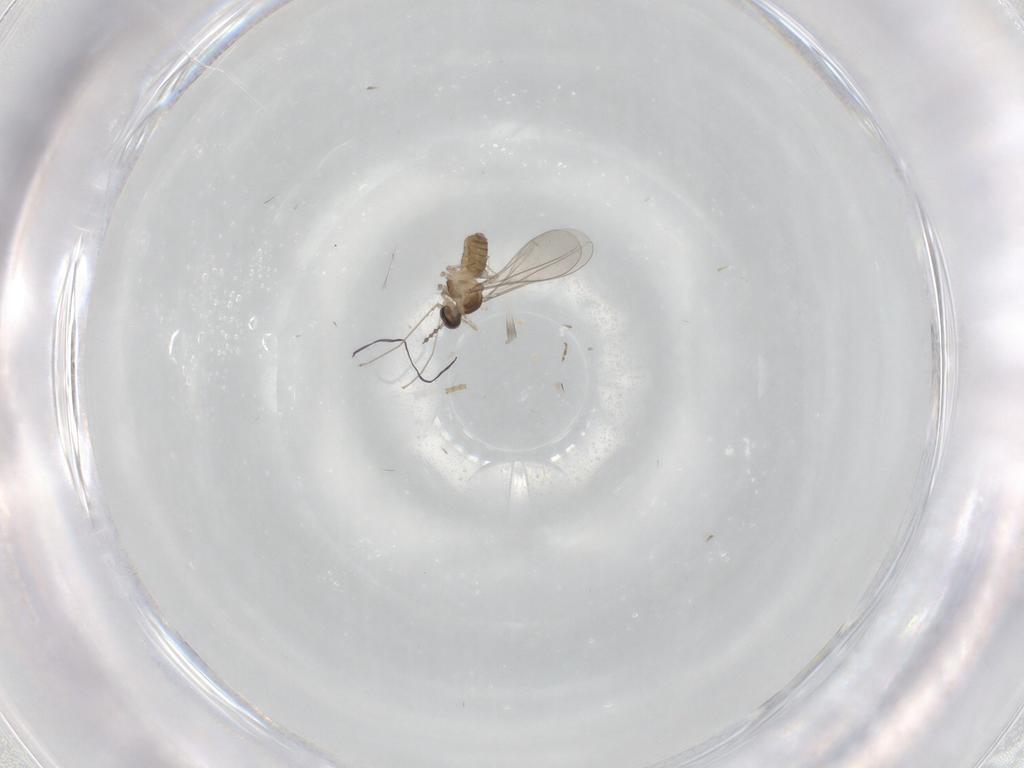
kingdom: Animalia
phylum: Arthropoda
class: Insecta
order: Diptera
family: Cecidomyiidae
